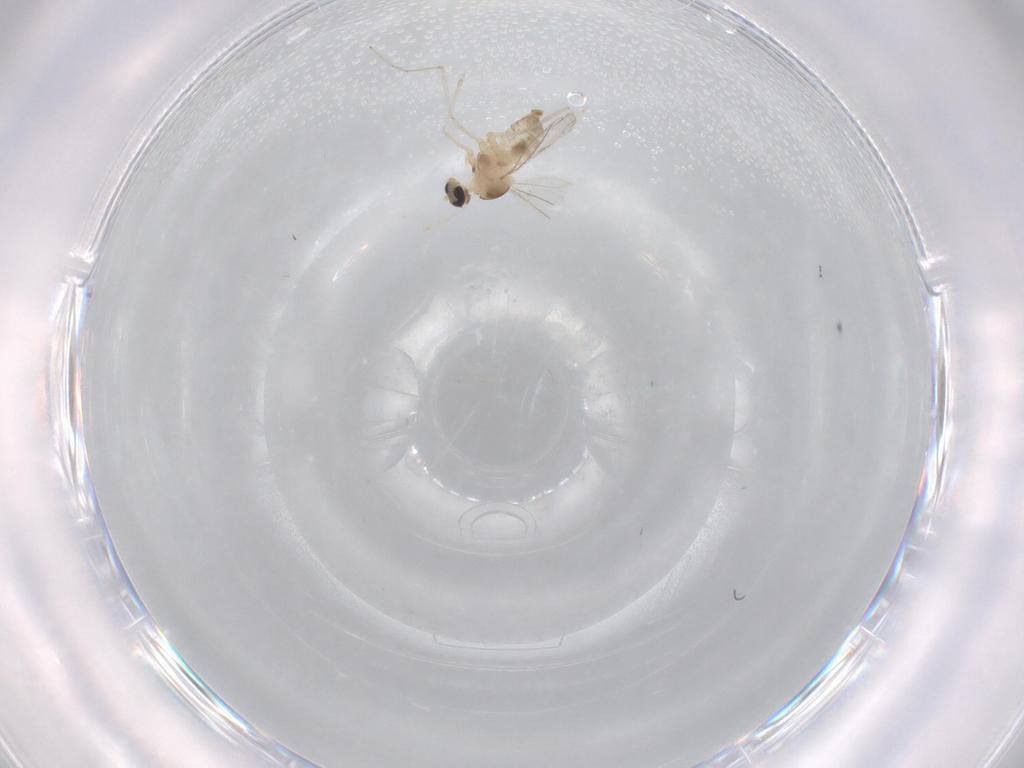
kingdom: Animalia
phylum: Arthropoda
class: Insecta
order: Diptera
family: Cecidomyiidae
